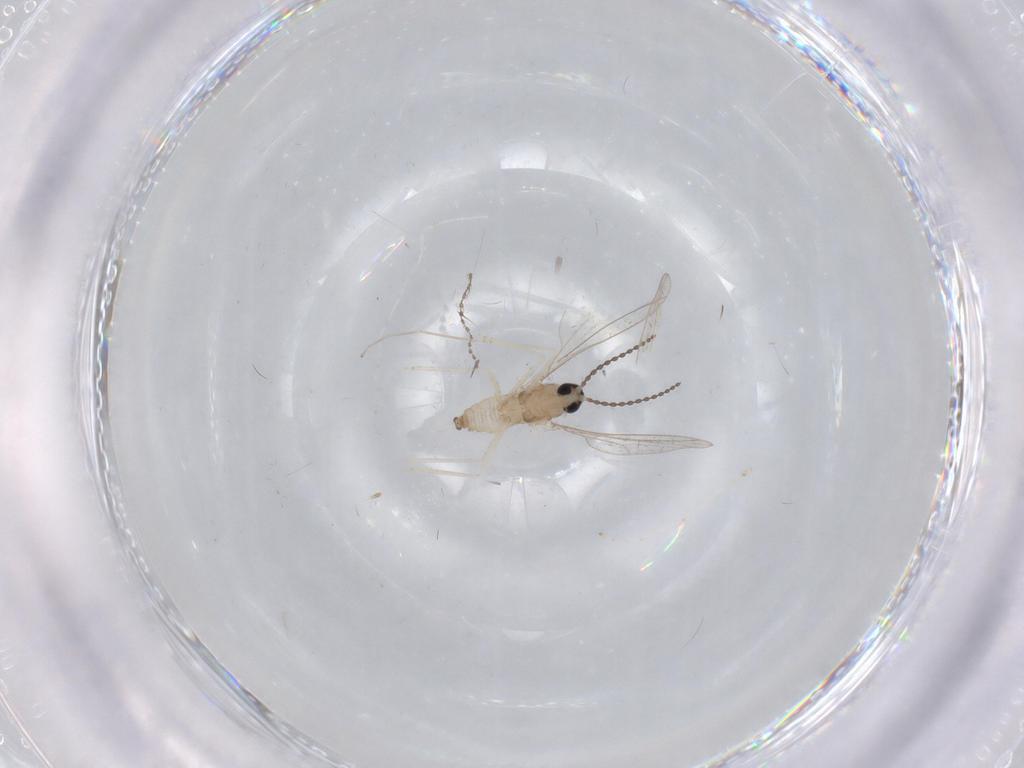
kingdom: Animalia
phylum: Arthropoda
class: Insecta
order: Diptera
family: Cecidomyiidae
